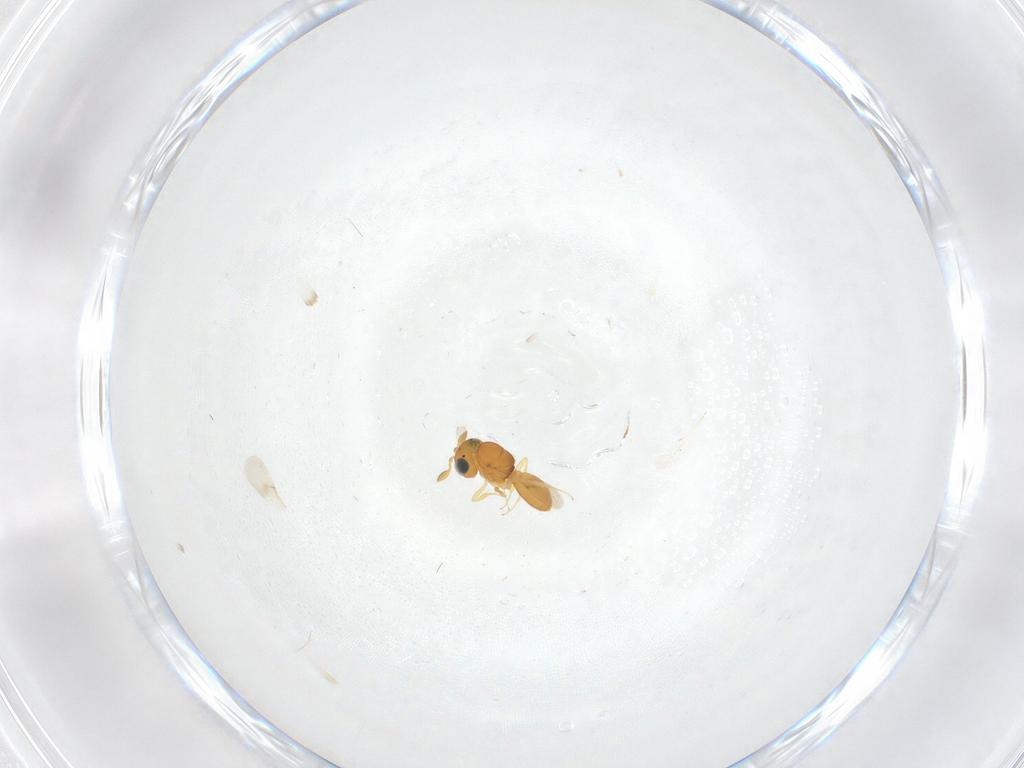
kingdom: Animalia
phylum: Arthropoda
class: Insecta
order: Hymenoptera
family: Scelionidae
